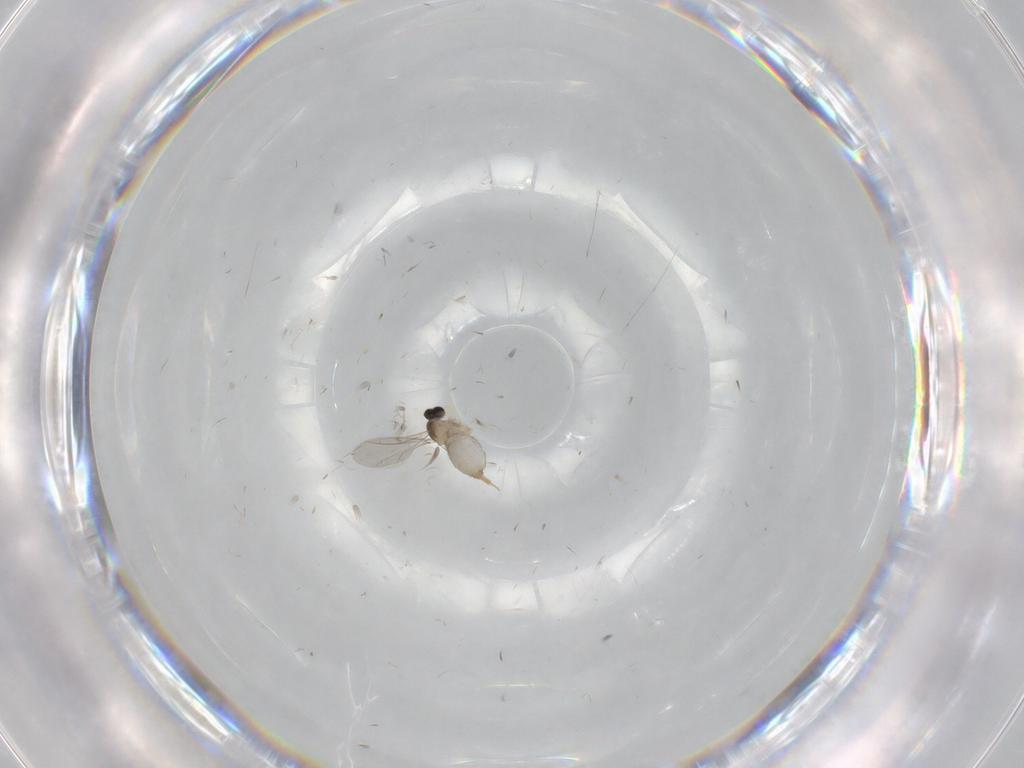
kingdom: Animalia
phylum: Arthropoda
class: Insecta
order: Diptera
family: Cecidomyiidae
